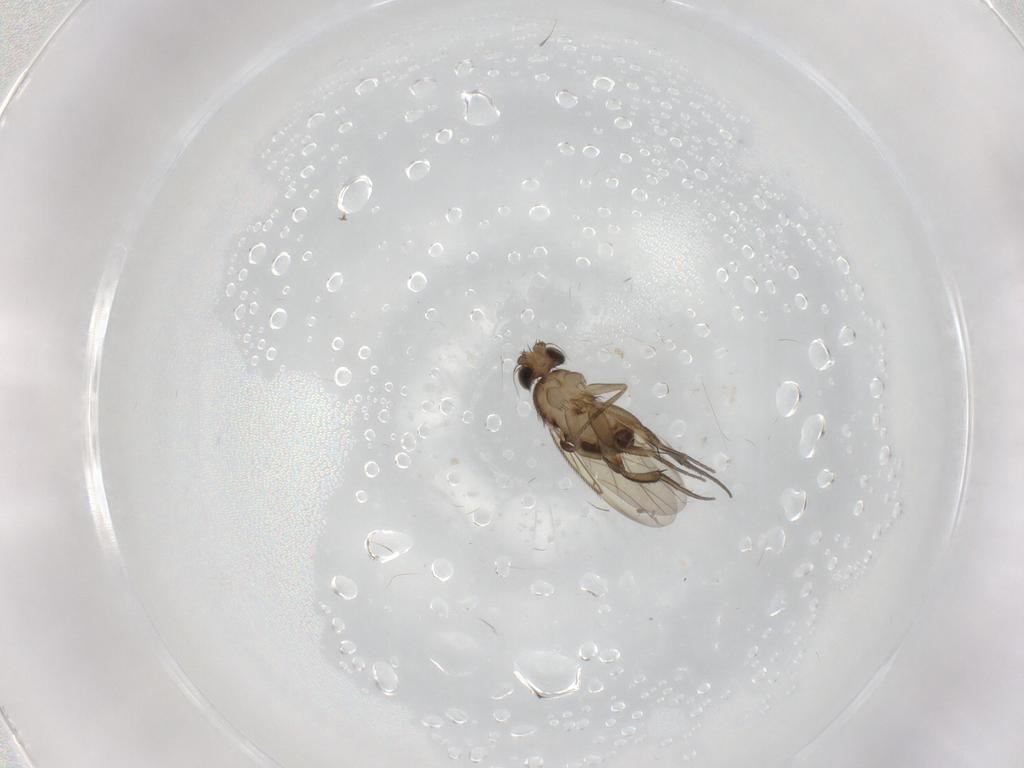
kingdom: Animalia
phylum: Arthropoda
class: Insecta
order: Diptera
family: Phoridae
